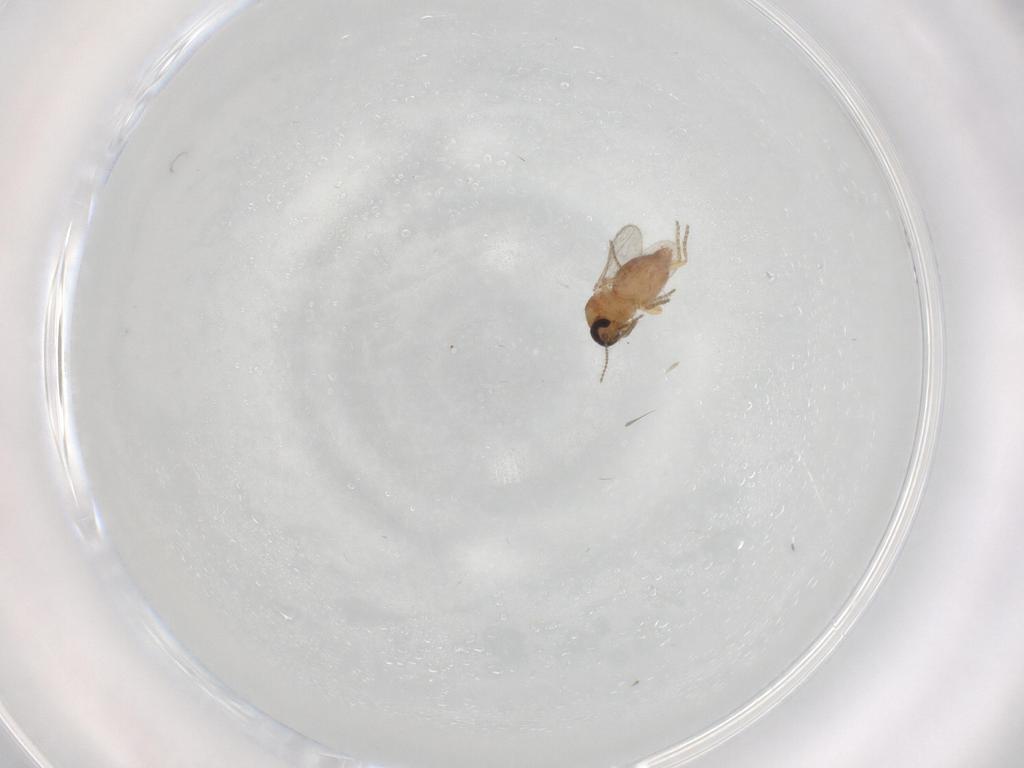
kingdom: Animalia
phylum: Arthropoda
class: Insecta
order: Diptera
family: Ceratopogonidae
